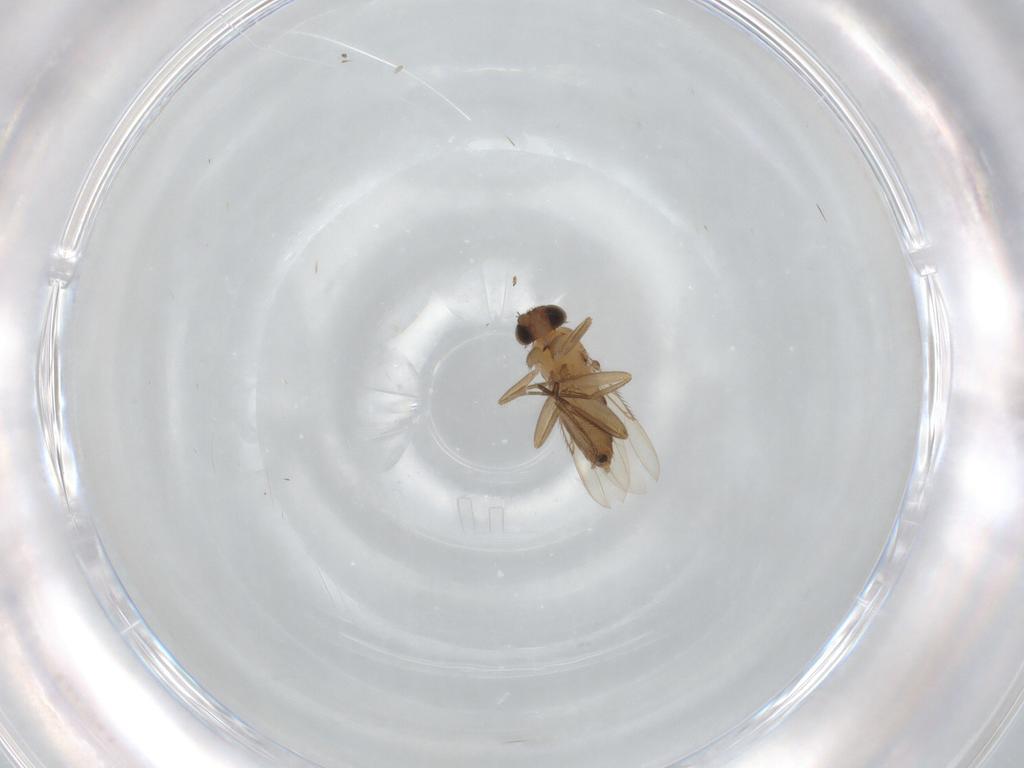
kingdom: Animalia
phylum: Arthropoda
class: Insecta
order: Diptera
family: Phoridae
